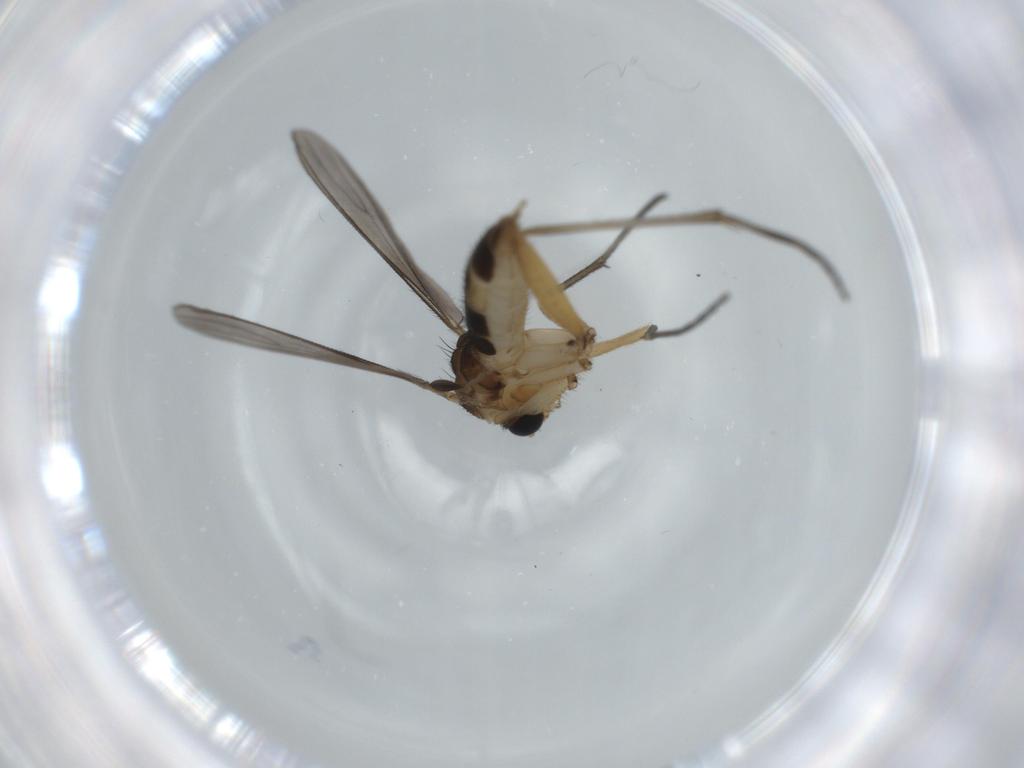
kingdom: Animalia
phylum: Arthropoda
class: Insecta
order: Diptera
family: Sciaridae
